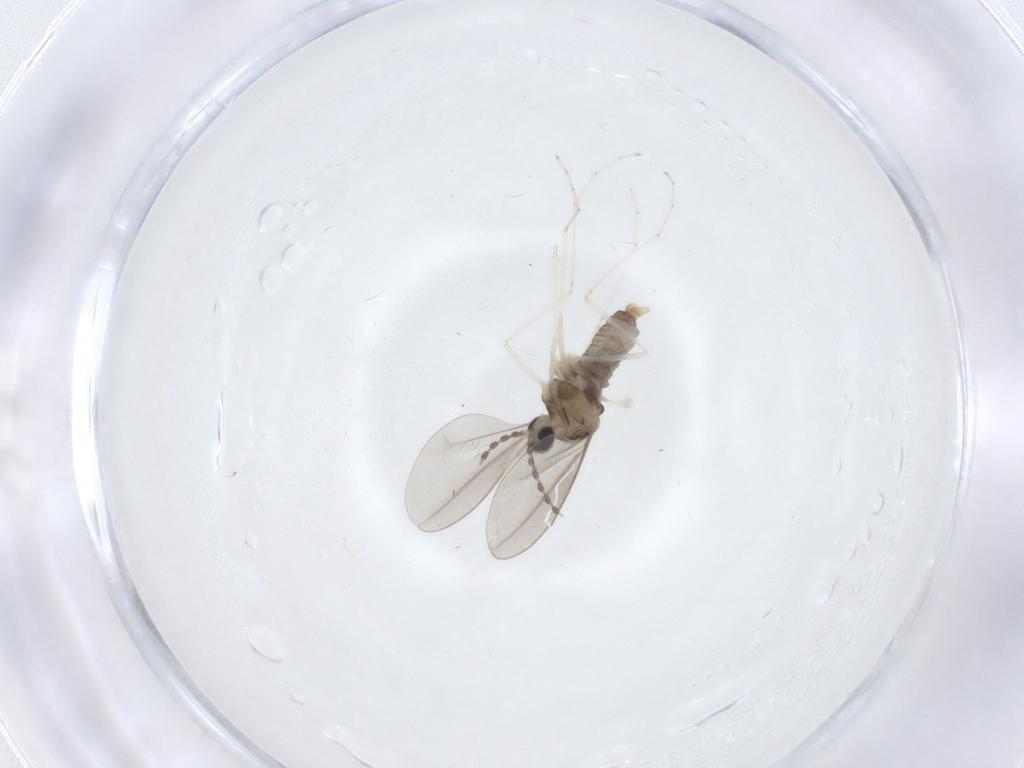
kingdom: Animalia
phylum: Arthropoda
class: Insecta
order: Diptera
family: Cecidomyiidae
